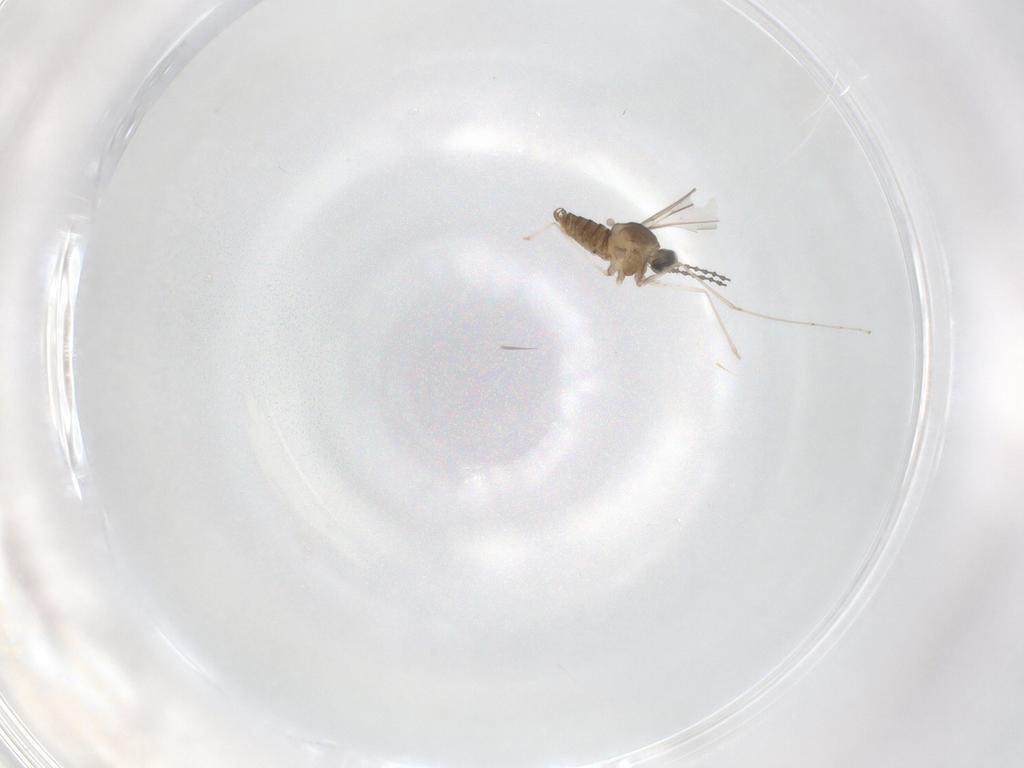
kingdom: Animalia
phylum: Arthropoda
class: Insecta
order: Diptera
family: Cecidomyiidae
